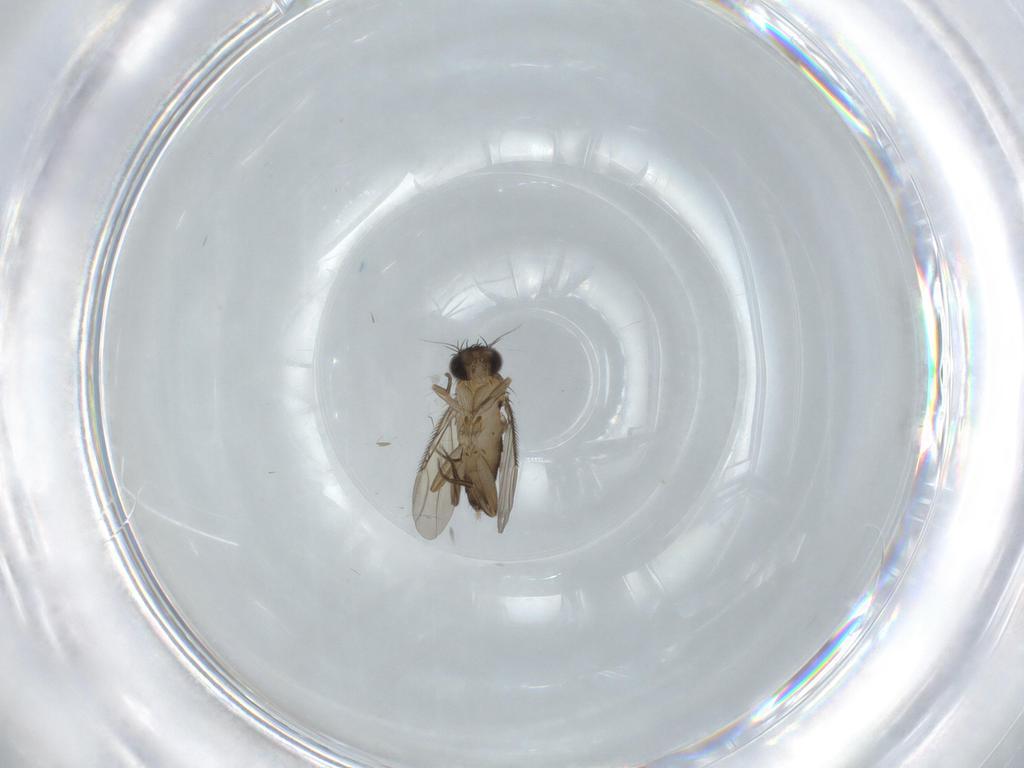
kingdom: Animalia
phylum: Arthropoda
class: Insecta
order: Diptera
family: Phoridae
